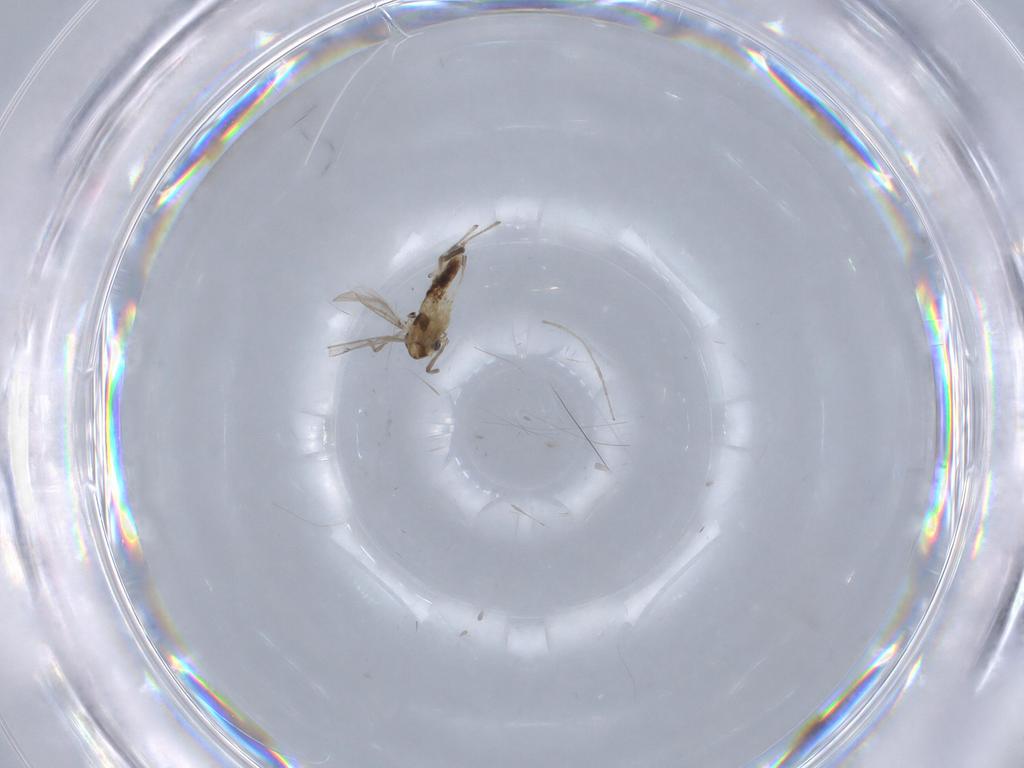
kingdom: Animalia
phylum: Arthropoda
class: Insecta
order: Diptera
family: Chironomidae
